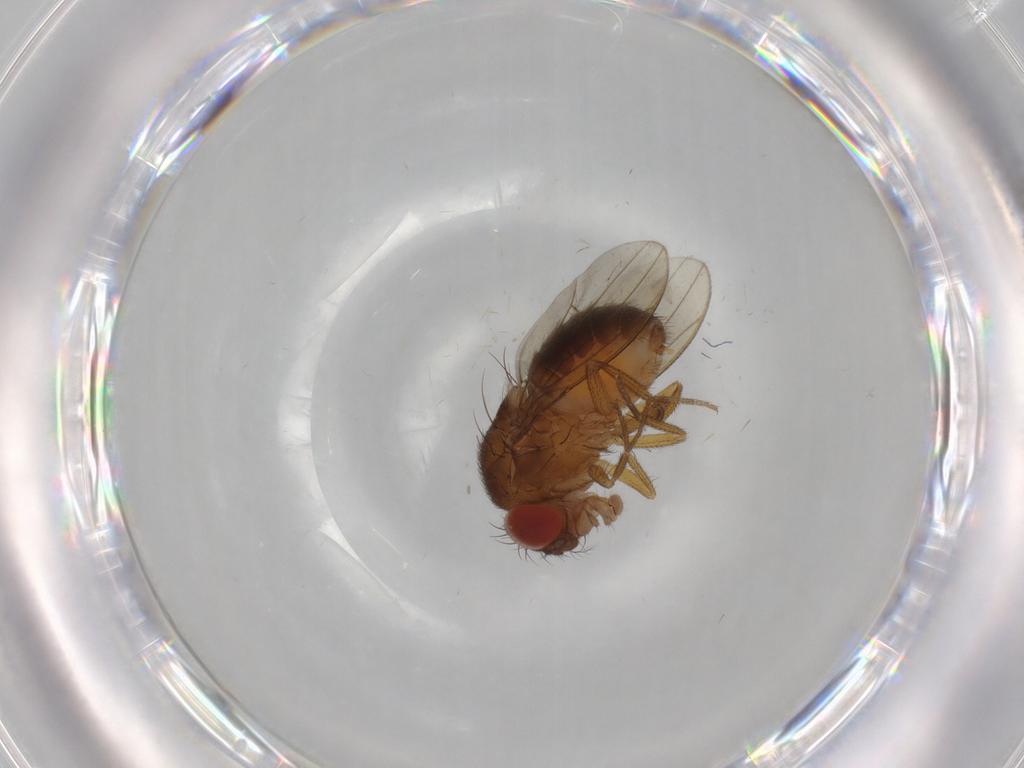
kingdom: Animalia
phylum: Arthropoda
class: Insecta
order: Diptera
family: Drosophilidae
